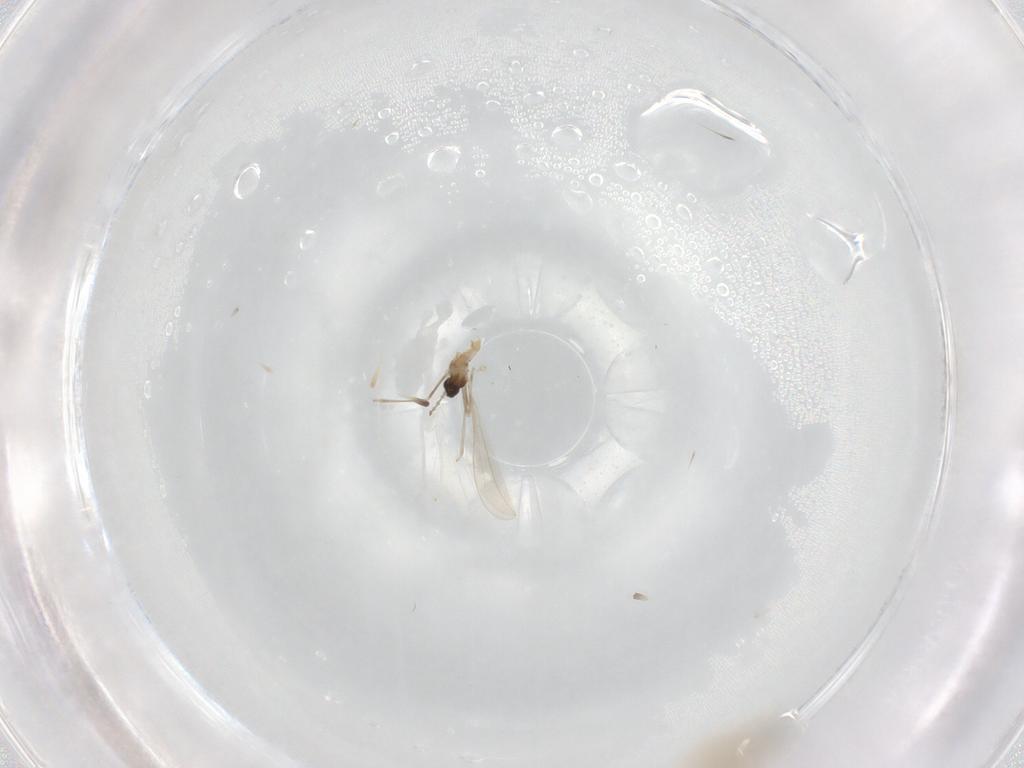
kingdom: Animalia
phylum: Arthropoda
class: Insecta
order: Diptera
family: Cecidomyiidae
